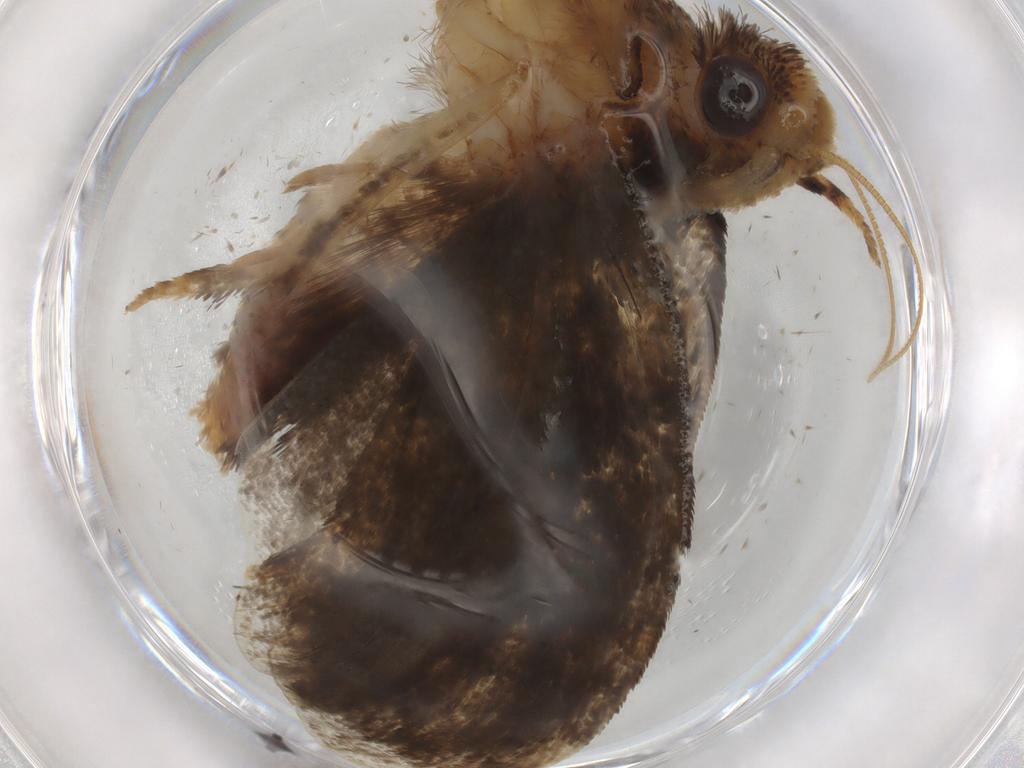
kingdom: Animalia
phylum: Arthropoda
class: Insecta
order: Lepidoptera
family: Tineidae
